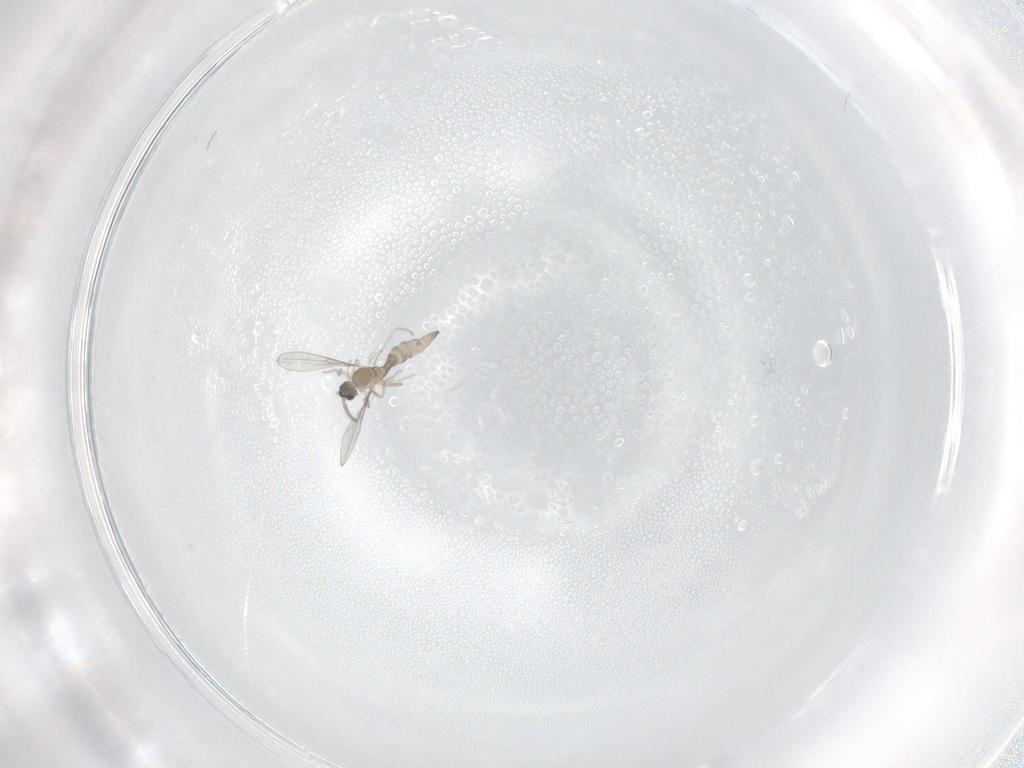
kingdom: Animalia
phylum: Arthropoda
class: Insecta
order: Diptera
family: Cecidomyiidae
